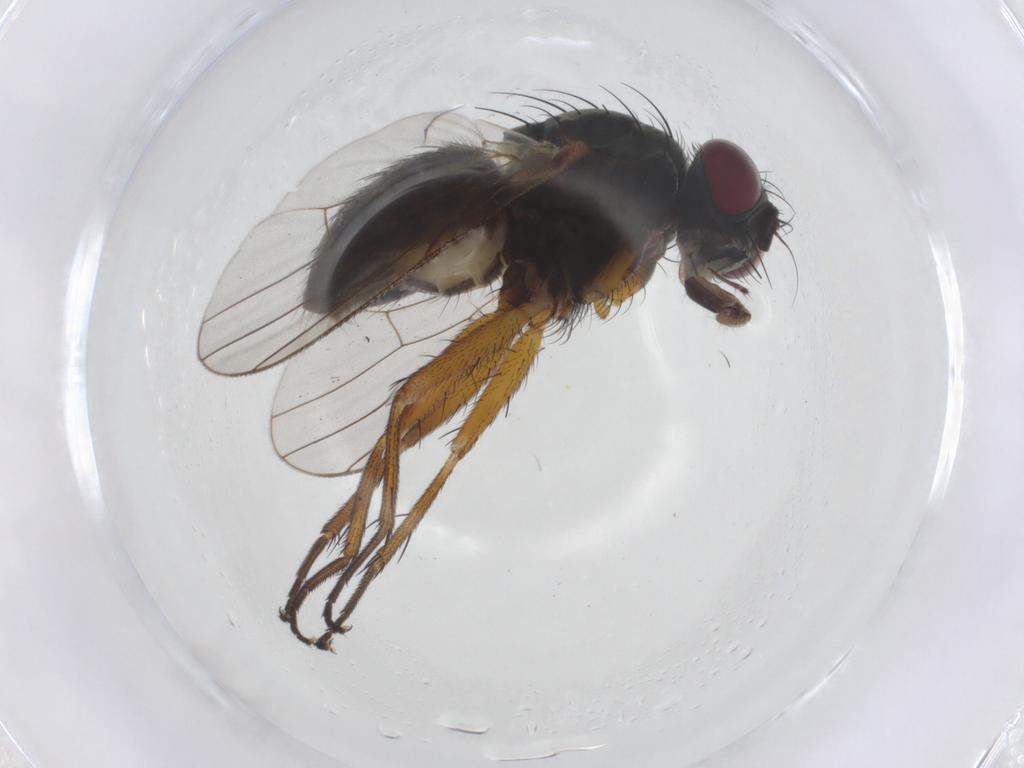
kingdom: Animalia
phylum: Arthropoda
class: Insecta
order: Diptera
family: Muscidae
